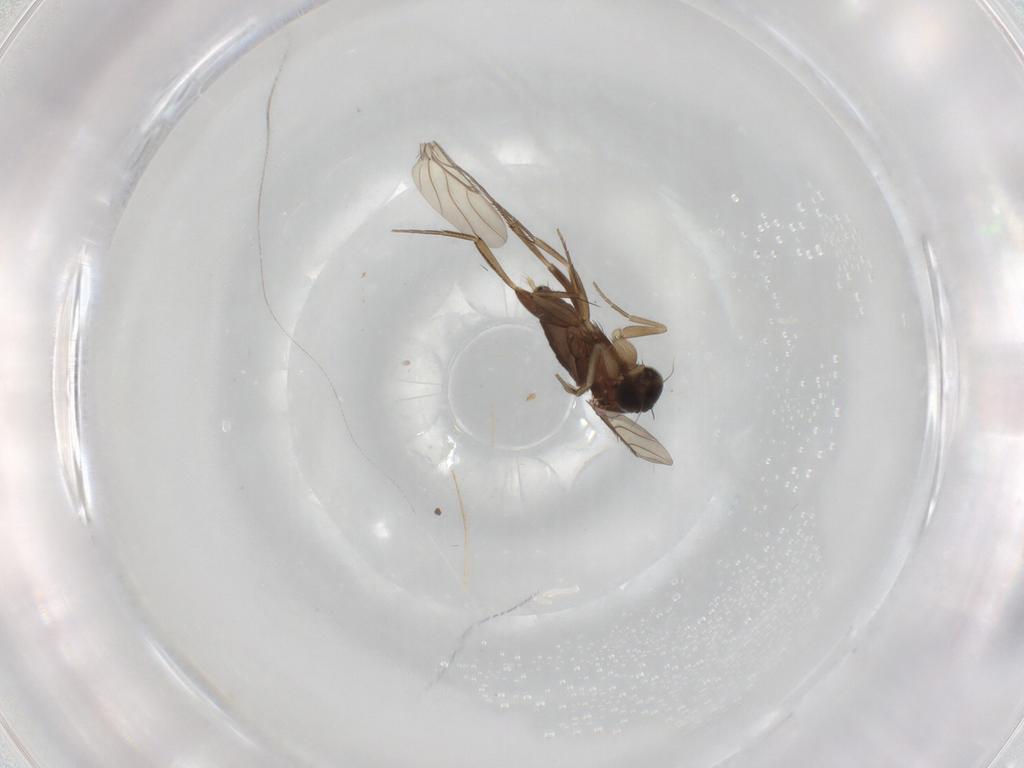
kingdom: Animalia
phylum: Arthropoda
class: Insecta
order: Diptera
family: Phoridae
